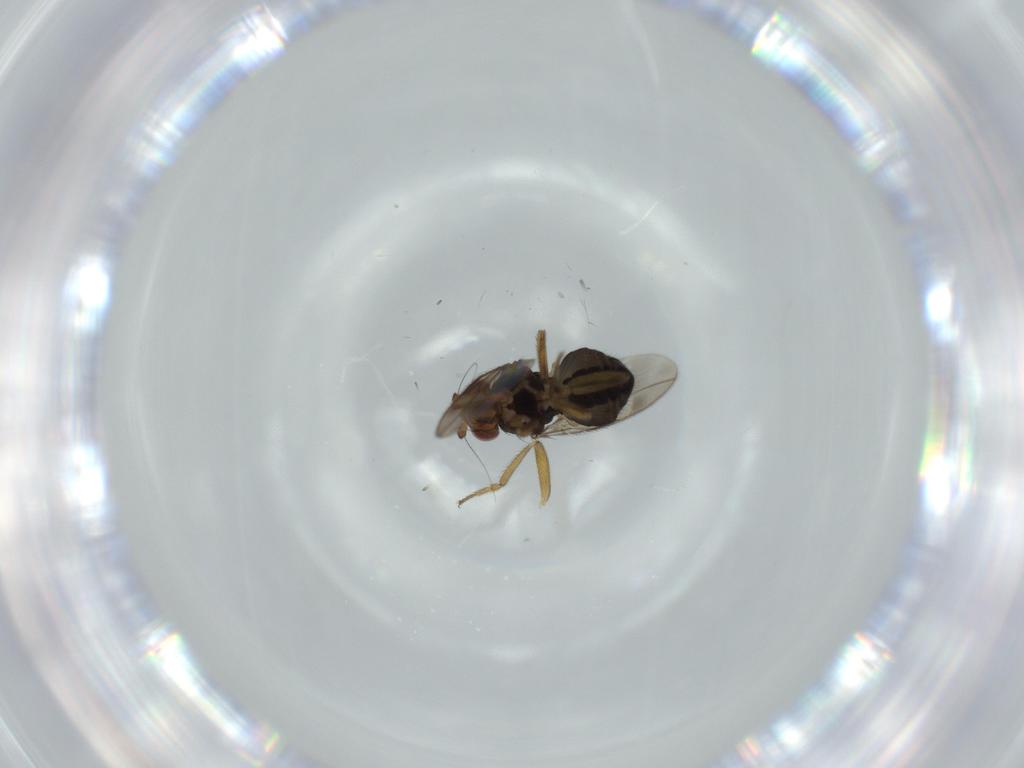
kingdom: Animalia
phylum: Arthropoda
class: Insecta
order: Diptera
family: Sphaeroceridae
